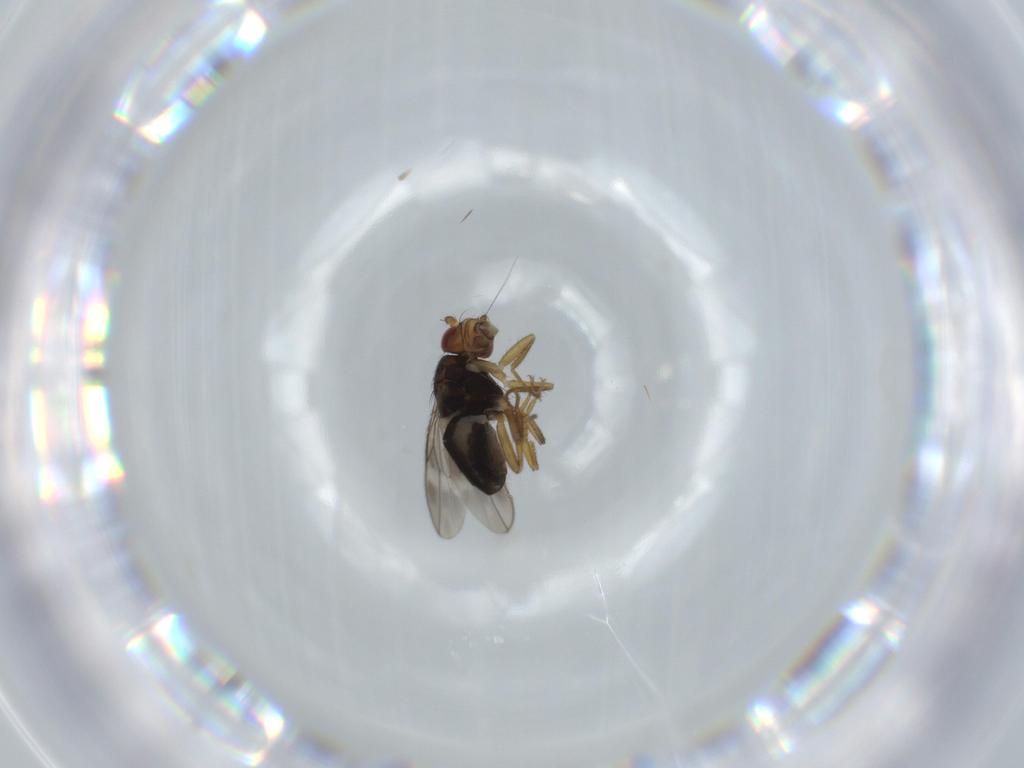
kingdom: Animalia
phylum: Arthropoda
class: Insecta
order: Diptera
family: Sphaeroceridae
